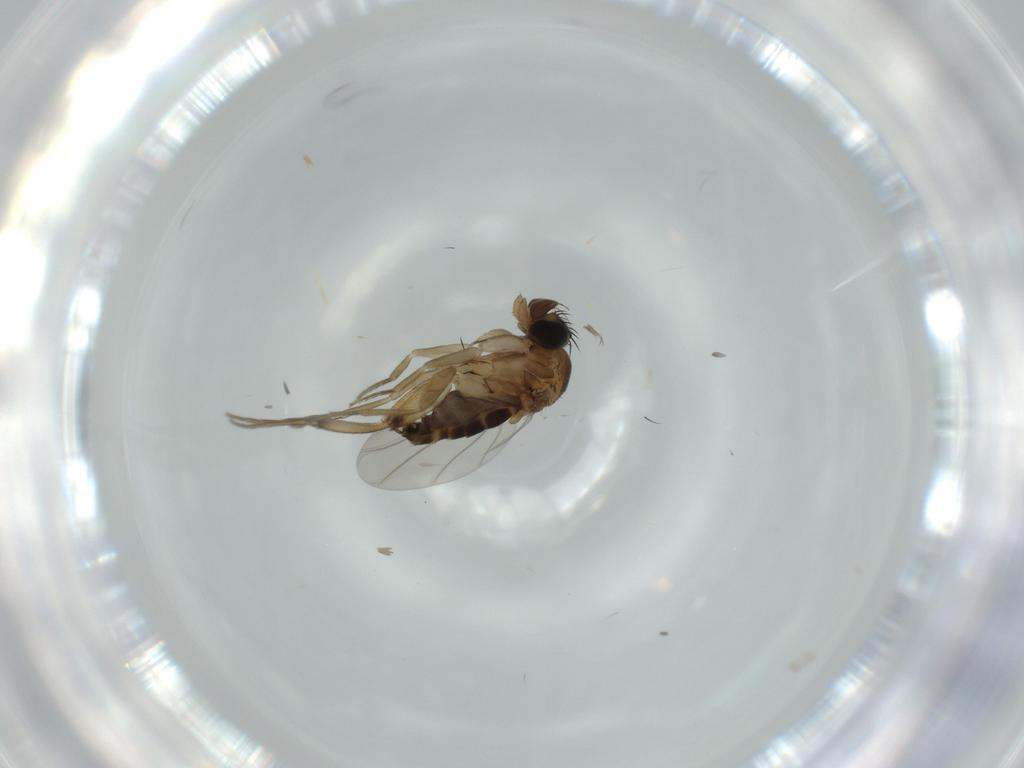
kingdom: Animalia
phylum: Arthropoda
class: Insecta
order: Diptera
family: Phoridae
